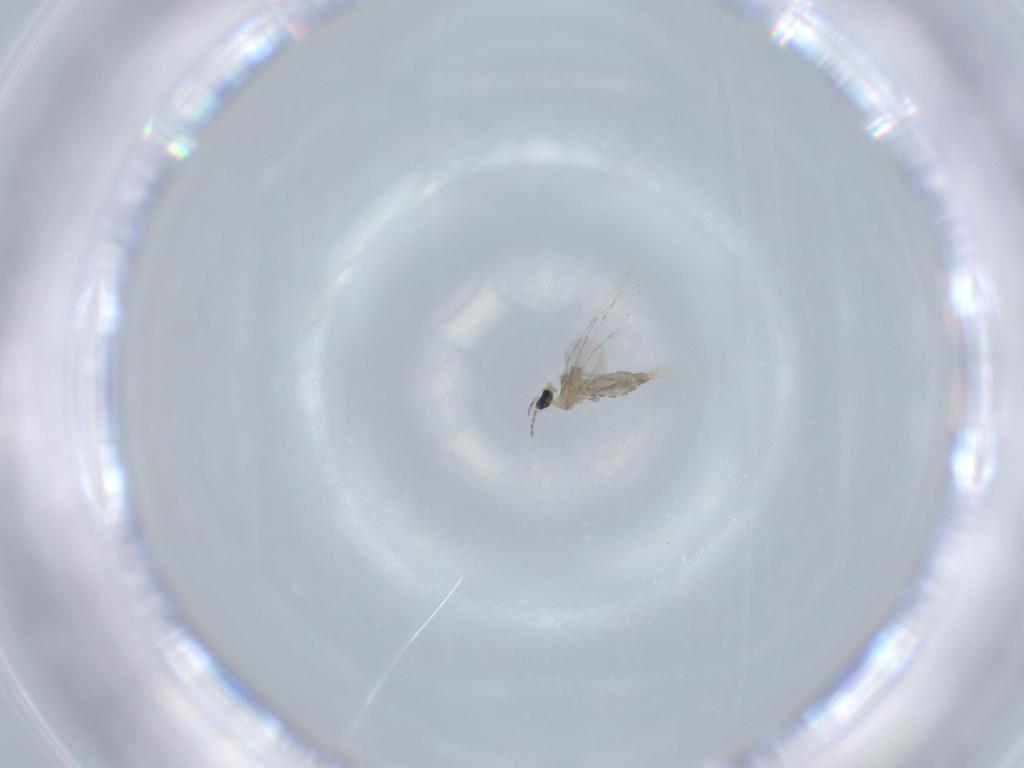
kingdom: Animalia
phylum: Arthropoda
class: Insecta
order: Diptera
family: Cecidomyiidae
